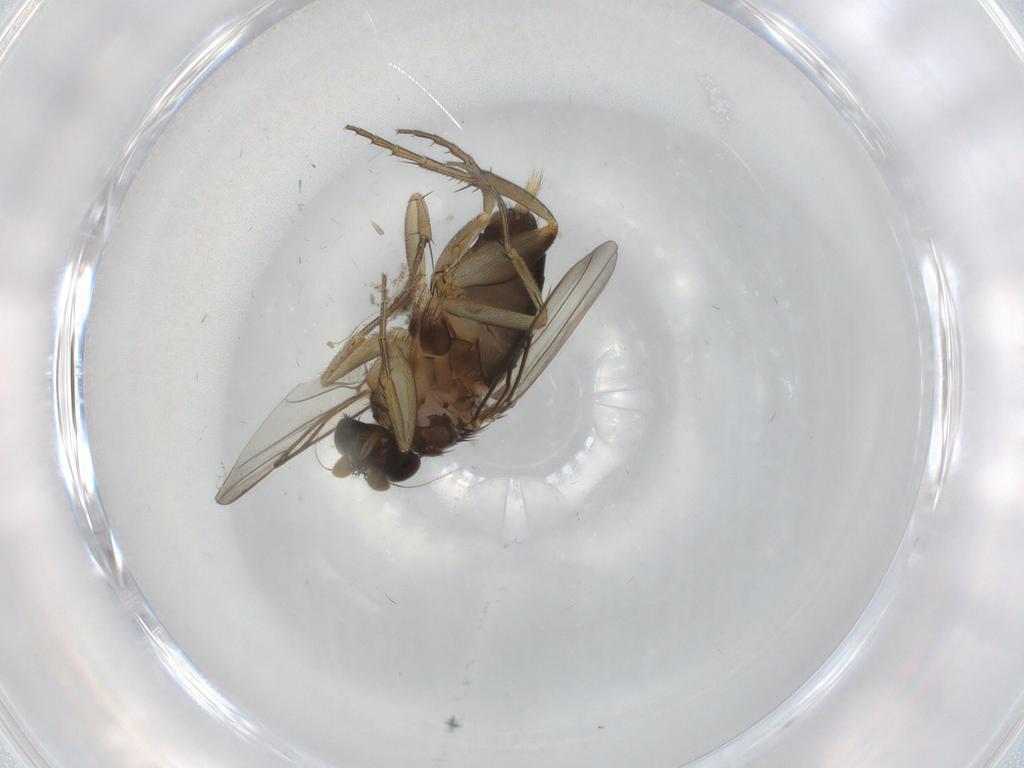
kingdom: Animalia
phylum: Arthropoda
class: Insecta
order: Diptera
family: Phoridae
